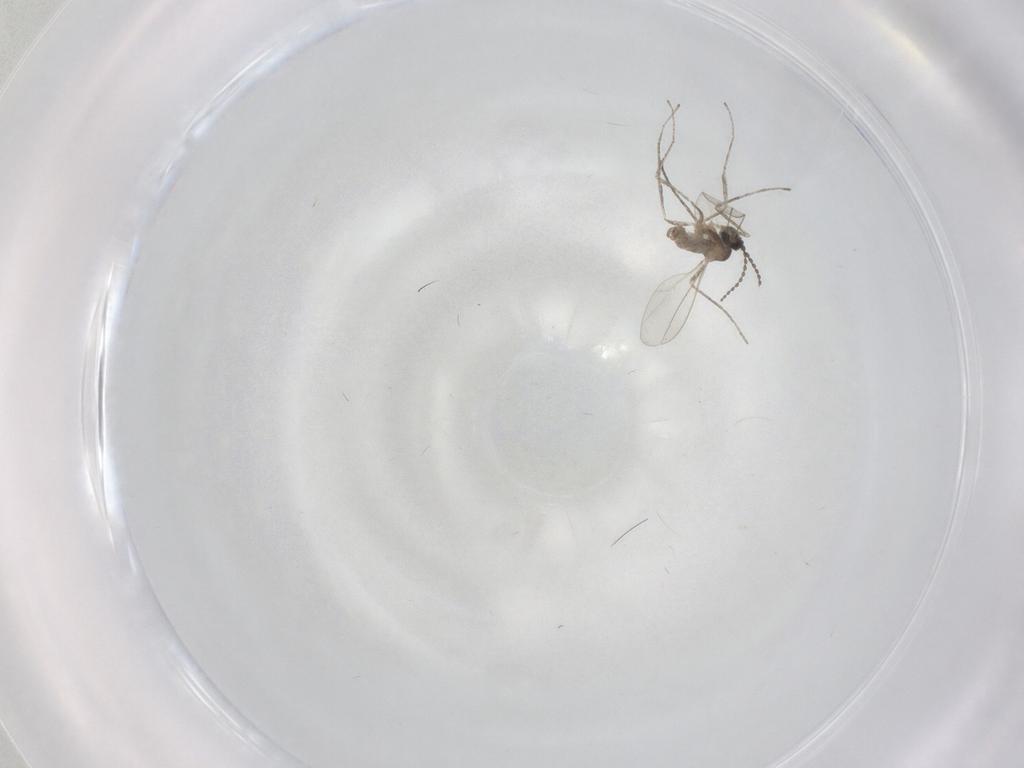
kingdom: Animalia
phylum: Arthropoda
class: Insecta
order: Diptera
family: Cecidomyiidae
